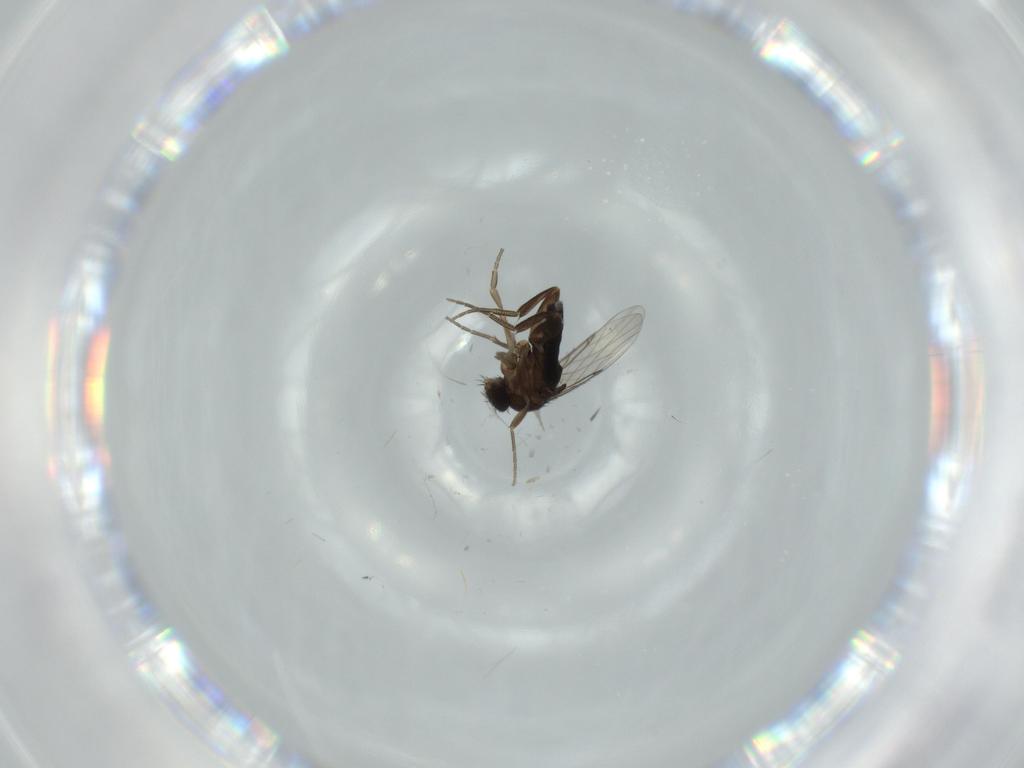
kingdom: Animalia
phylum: Arthropoda
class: Insecta
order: Diptera
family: Phoridae
